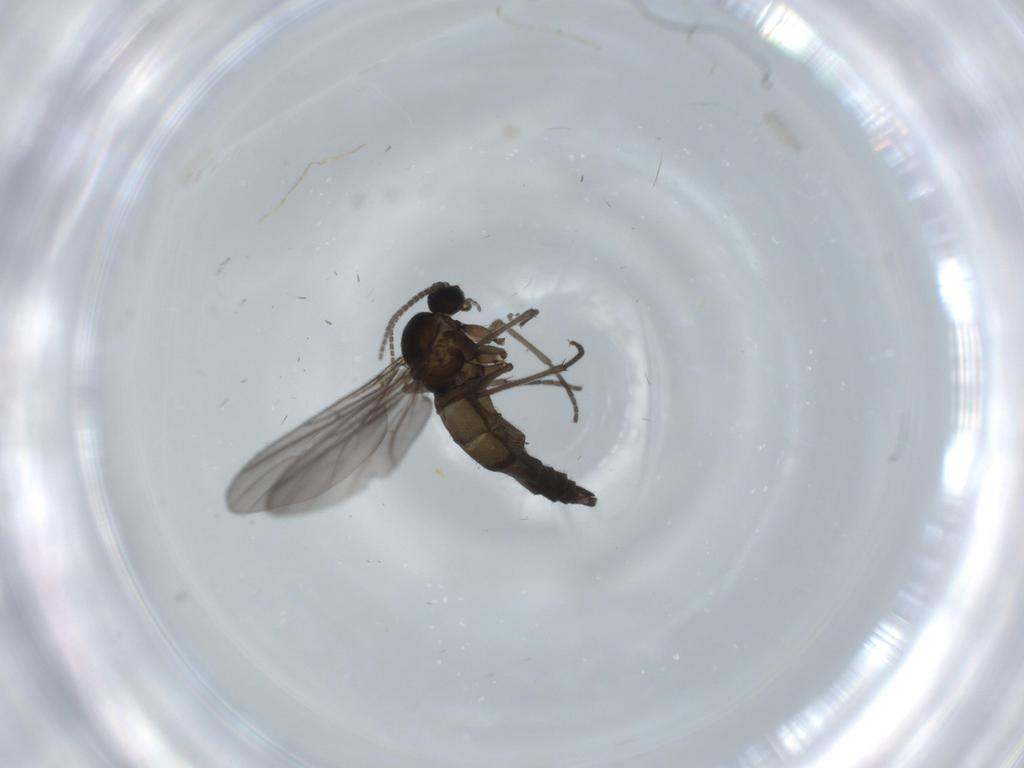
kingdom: Animalia
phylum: Arthropoda
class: Insecta
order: Diptera
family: Sciaridae
